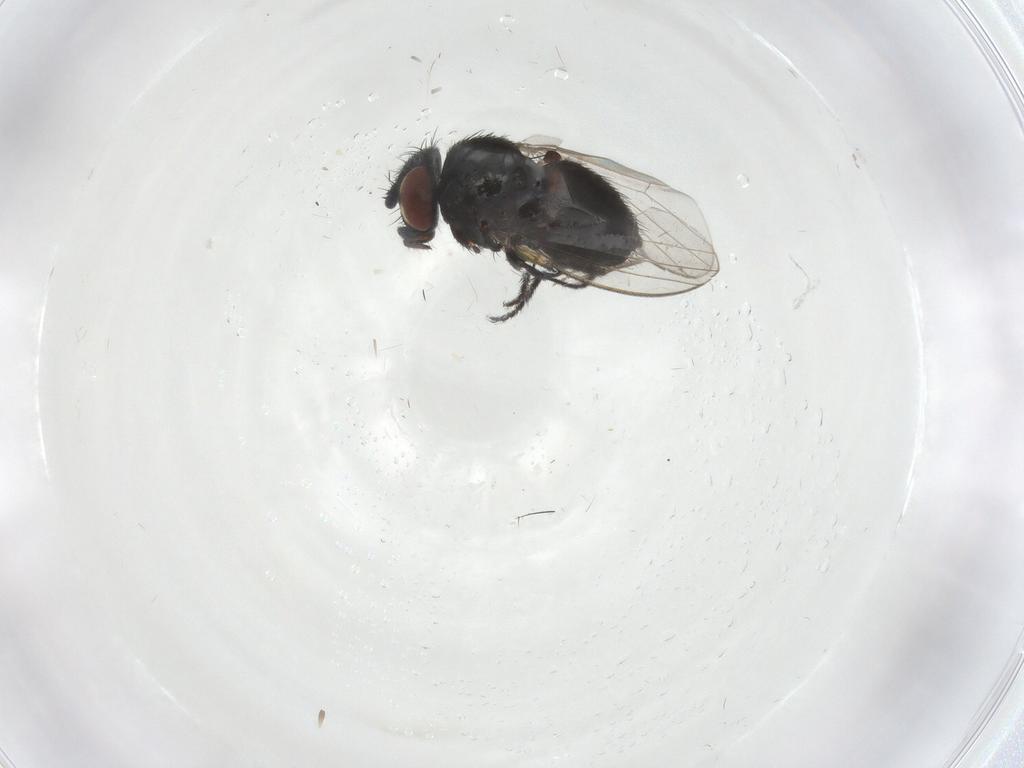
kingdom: Animalia
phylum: Arthropoda
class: Insecta
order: Diptera
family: Milichiidae
